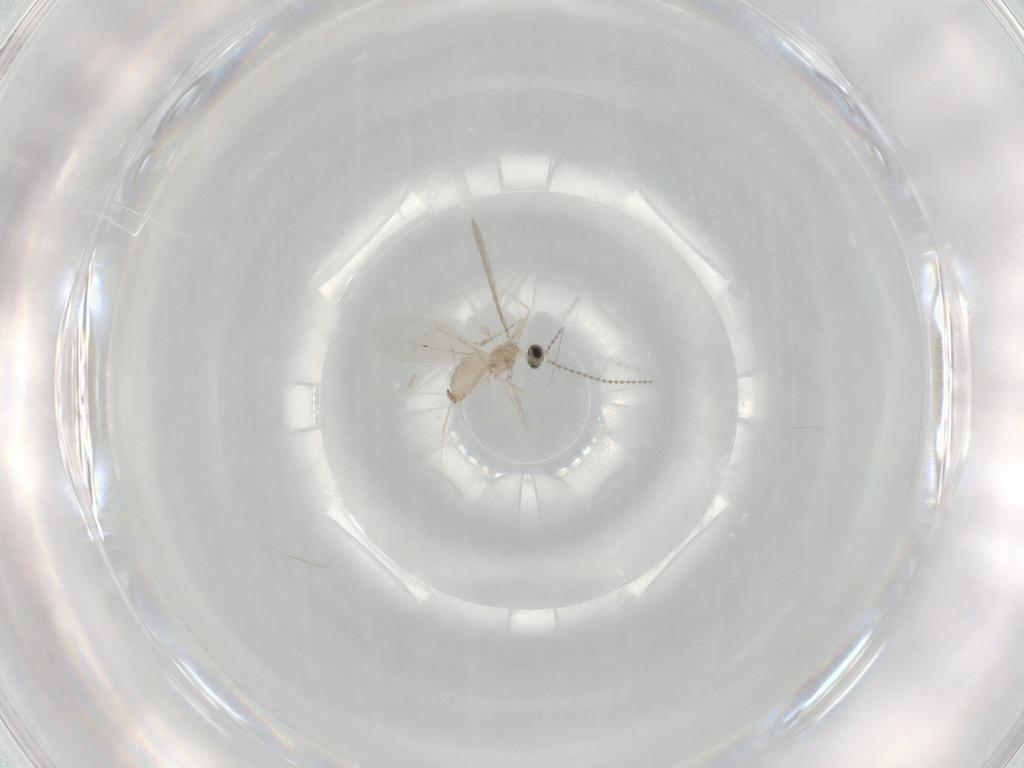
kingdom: Animalia
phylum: Arthropoda
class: Insecta
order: Diptera
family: Cecidomyiidae
